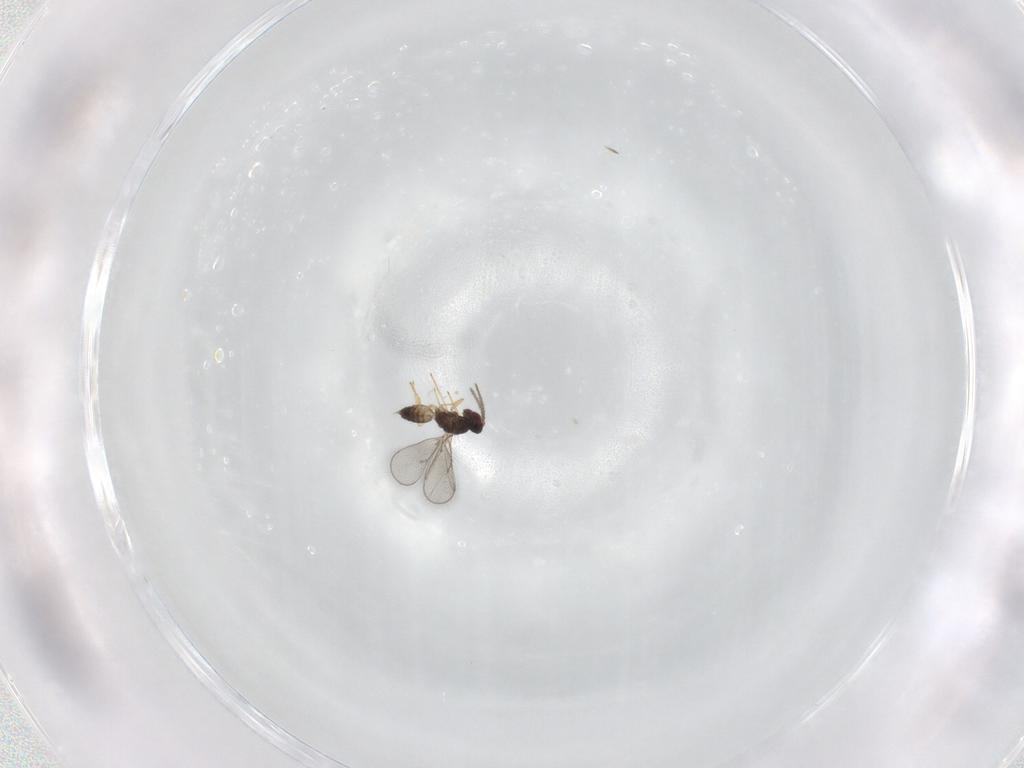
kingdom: Animalia
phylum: Arthropoda
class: Insecta
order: Hymenoptera
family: Eulophidae
